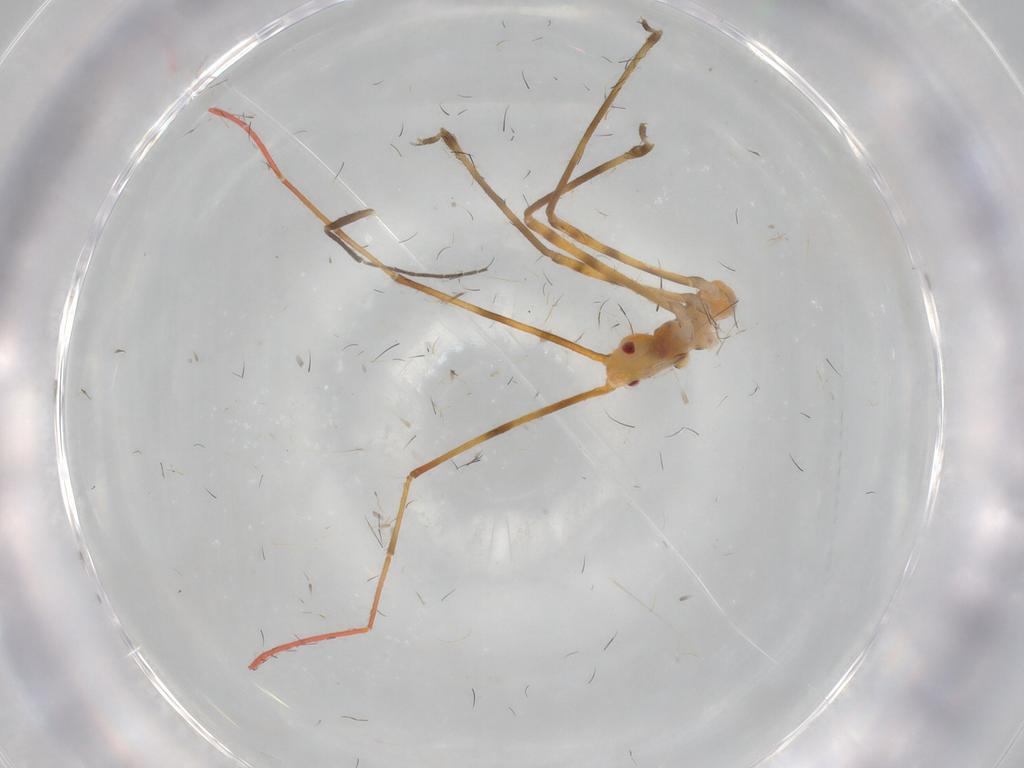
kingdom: Animalia
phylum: Arthropoda
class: Insecta
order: Hemiptera
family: Reduviidae
